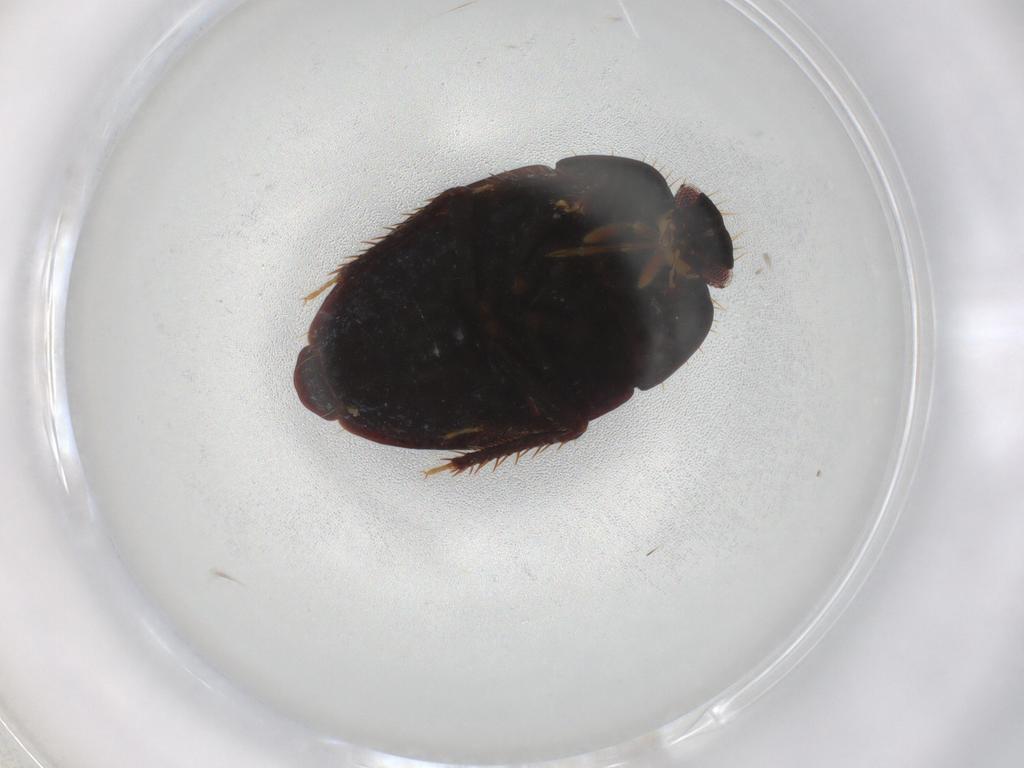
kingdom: Animalia
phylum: Arthropoda
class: Insecta
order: Hemiptera
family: Cydnidae
